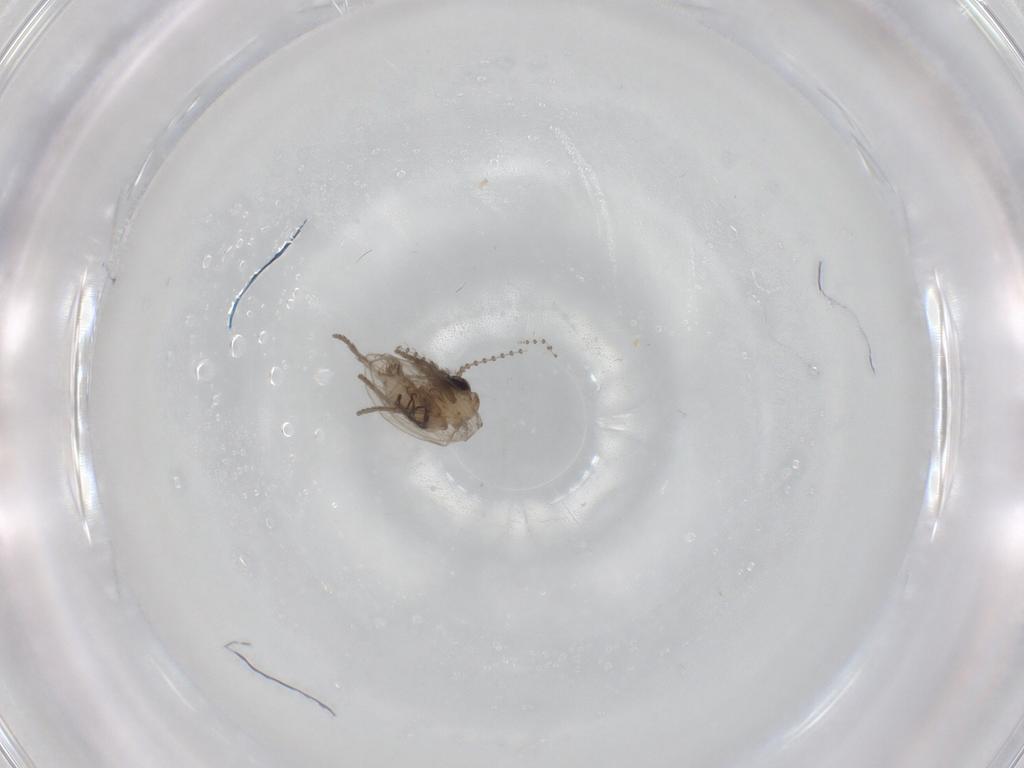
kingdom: Animalia
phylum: Arthropoda
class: Insecta
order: Diptera
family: Psychodidae
